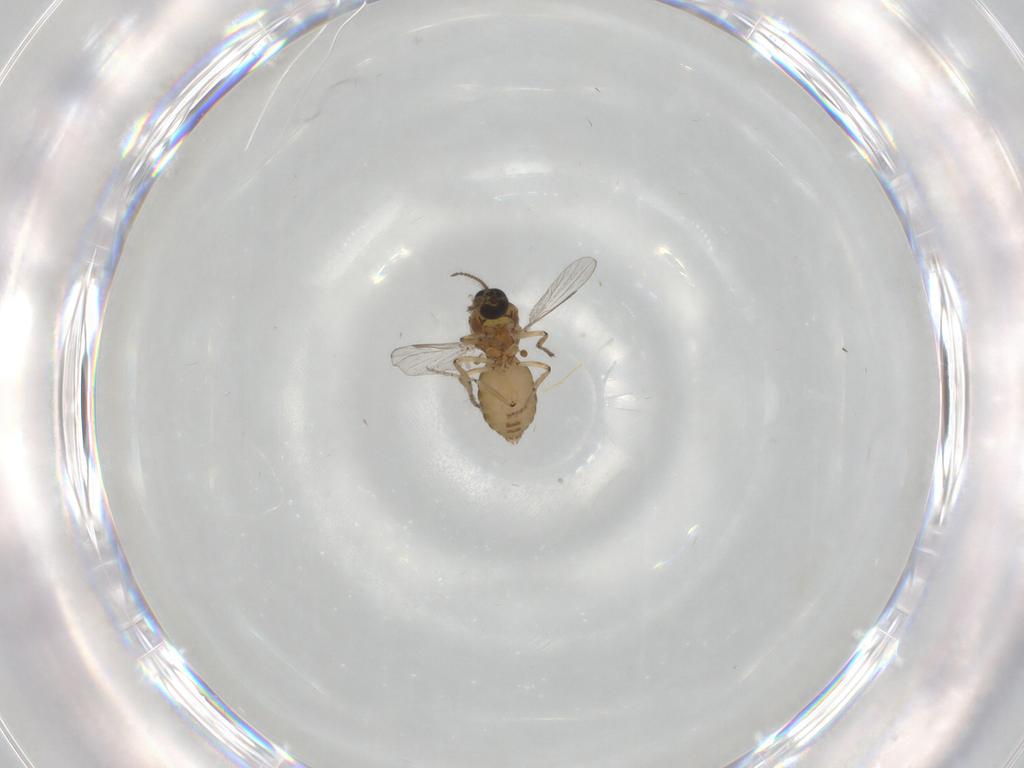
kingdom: Animalia
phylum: Arthropoda
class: Insecta
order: Diptera
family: Ceratopogonidae
